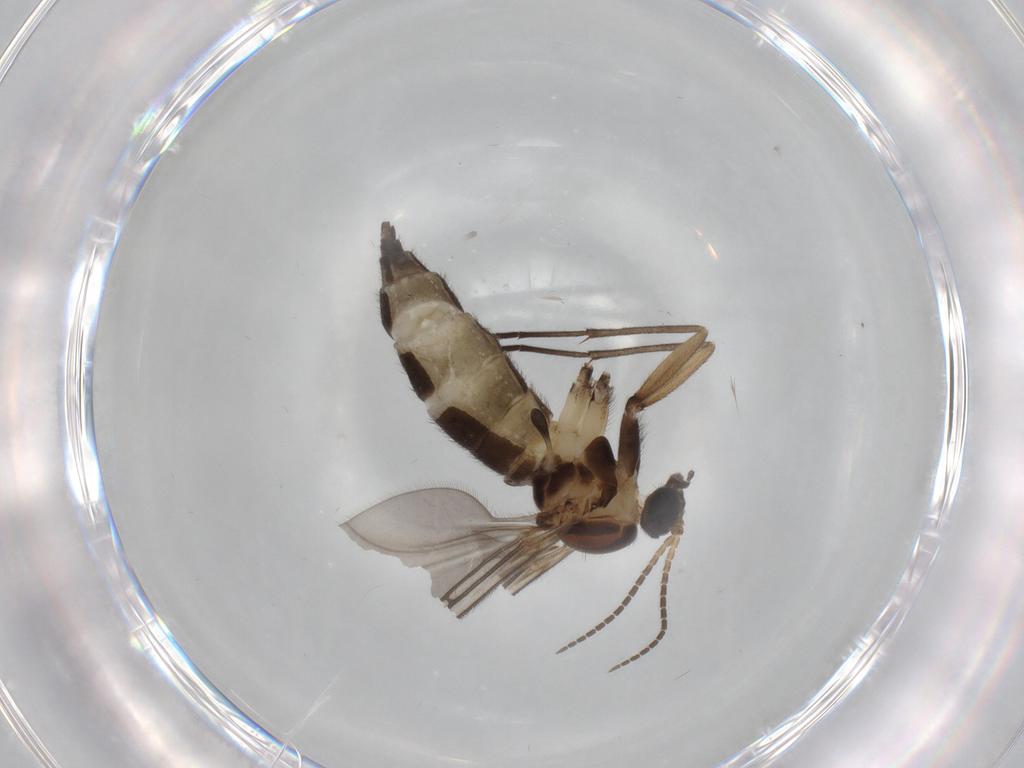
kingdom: Animalia
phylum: Arthropoda
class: Insecta
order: Diptera
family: Sciaridae
